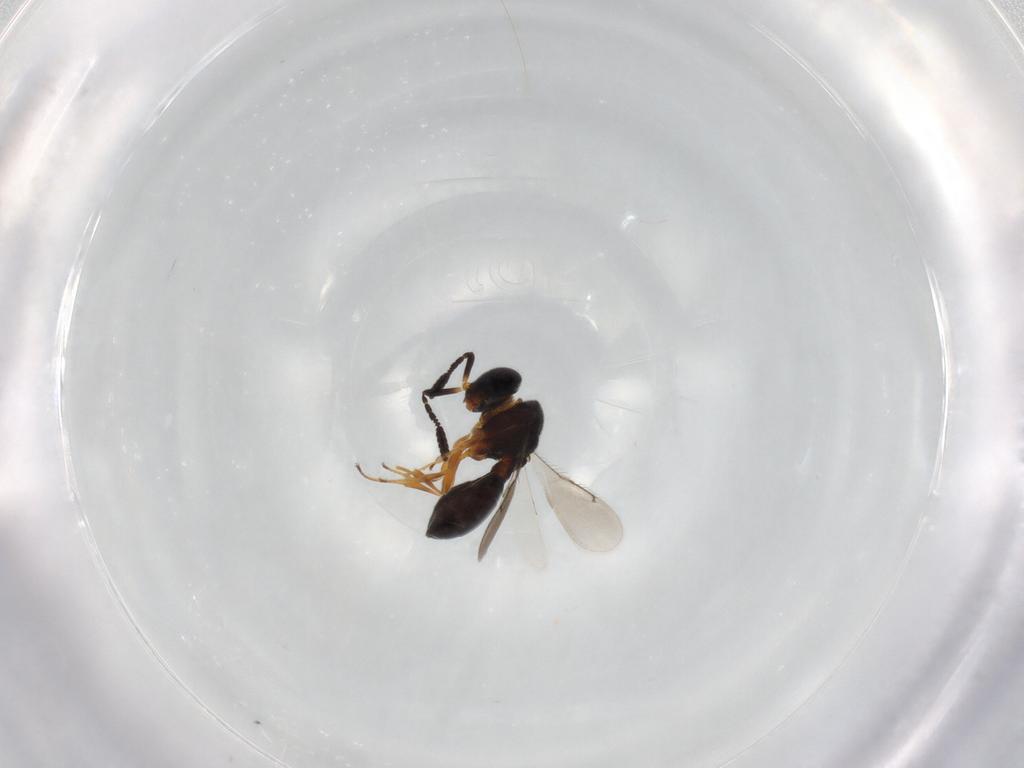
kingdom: Animalia
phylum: Arthropoda
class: Insecta
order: Hymenoptera
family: Scelionidae
